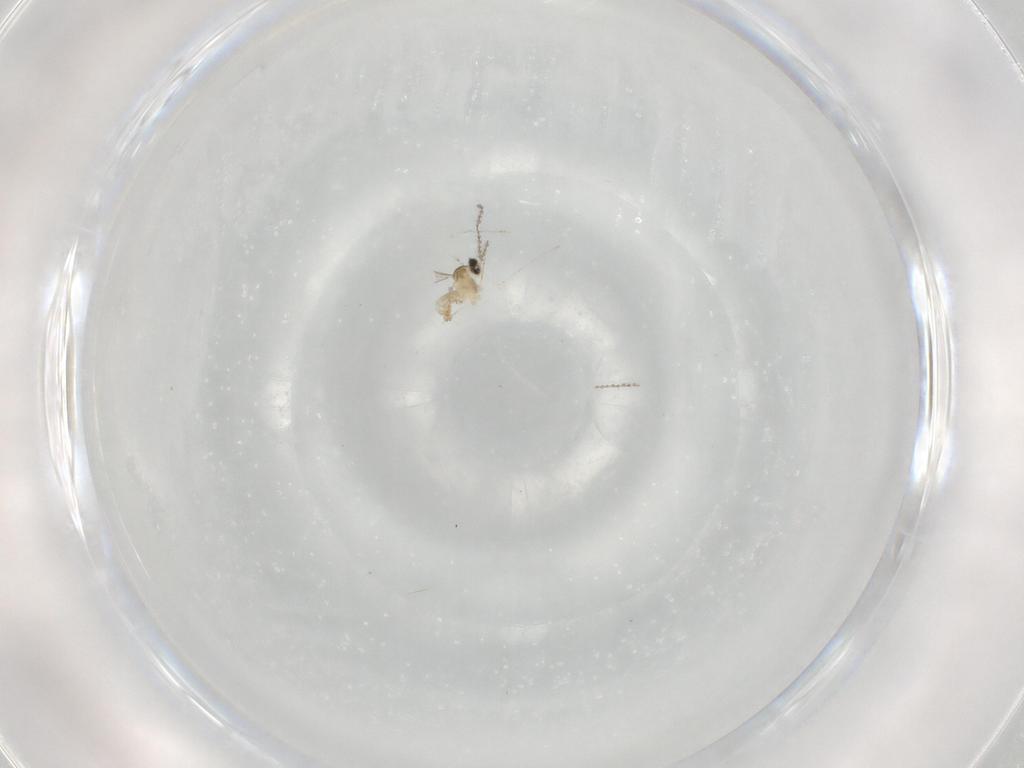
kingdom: Animalia
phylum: Arthropoda
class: Insecta
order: Diptera
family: Cecidomyiidae
